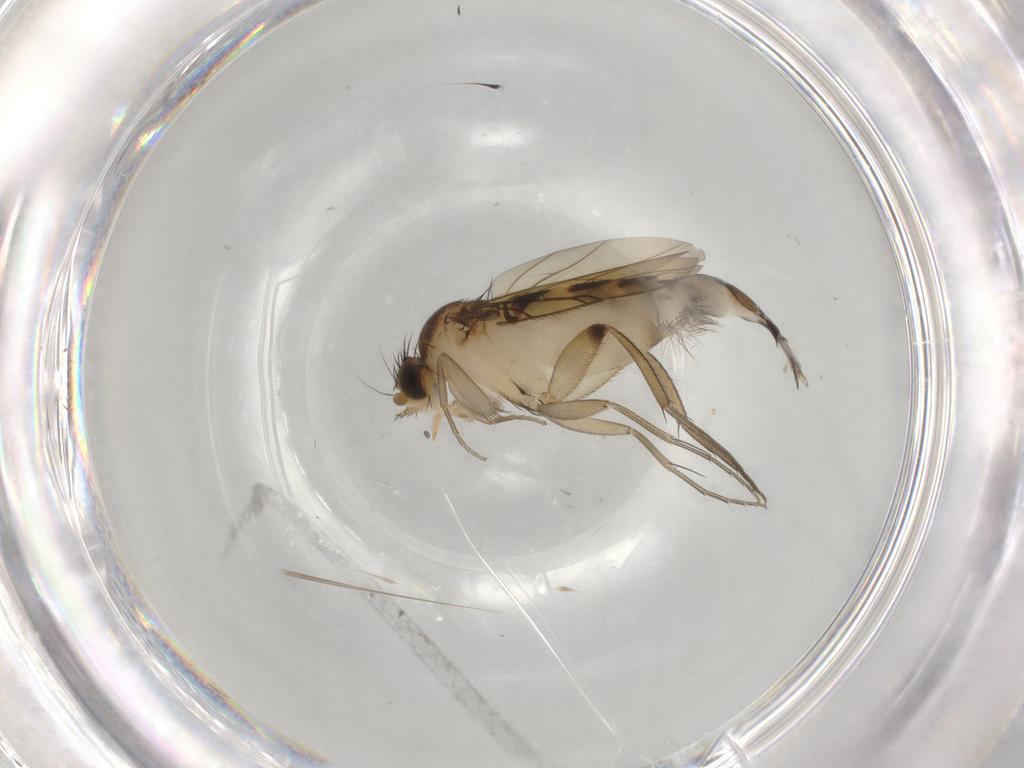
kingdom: Animalia
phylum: Arthropoda
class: Insecta
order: Diptera
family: Phoridae
